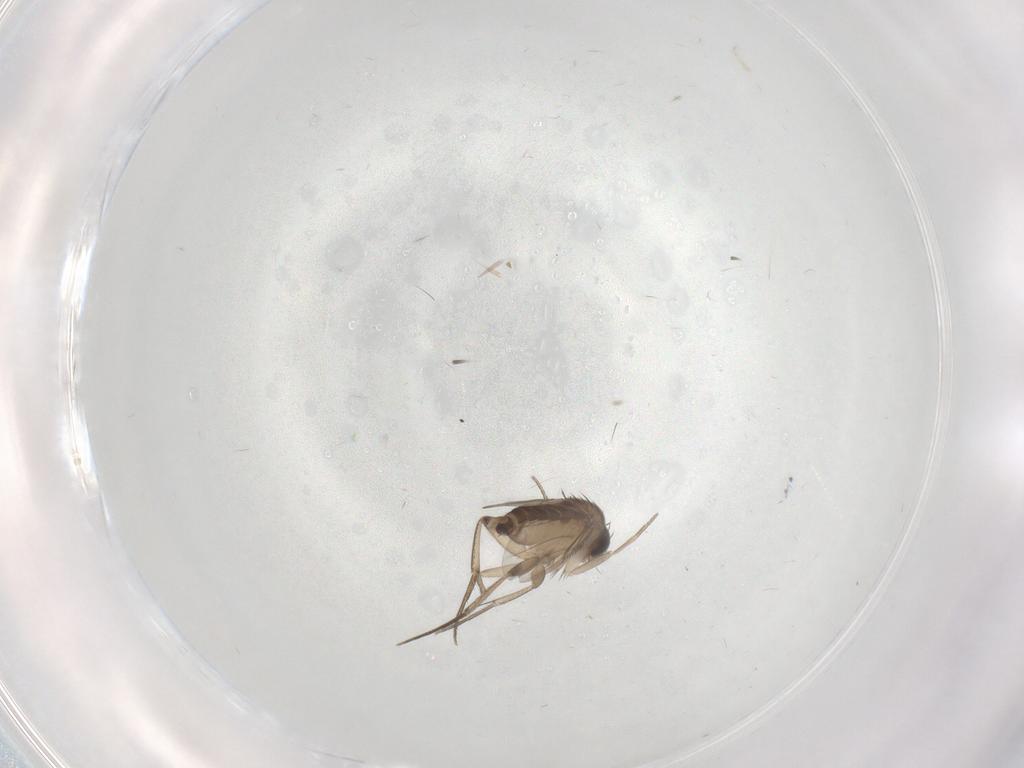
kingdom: Animalia
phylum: Arthropoda
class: Insecta
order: Diptera
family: Phoridae
